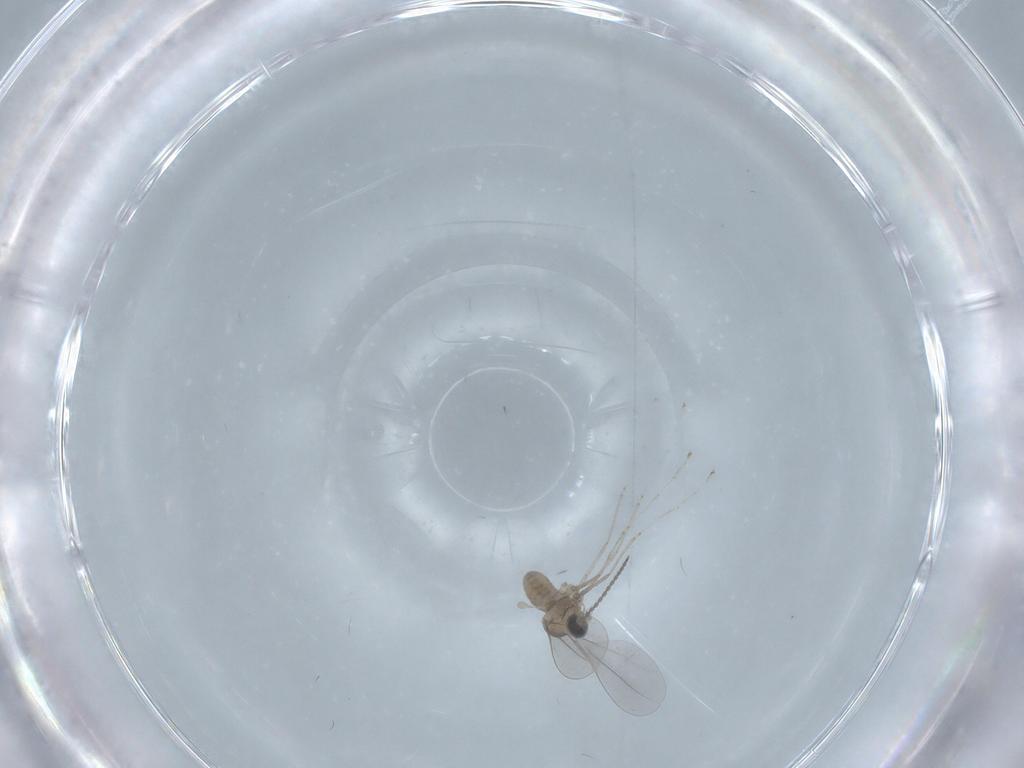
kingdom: Animalia
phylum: Arthropoda
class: Insecta
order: Diptera
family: Cecidomyiidae
